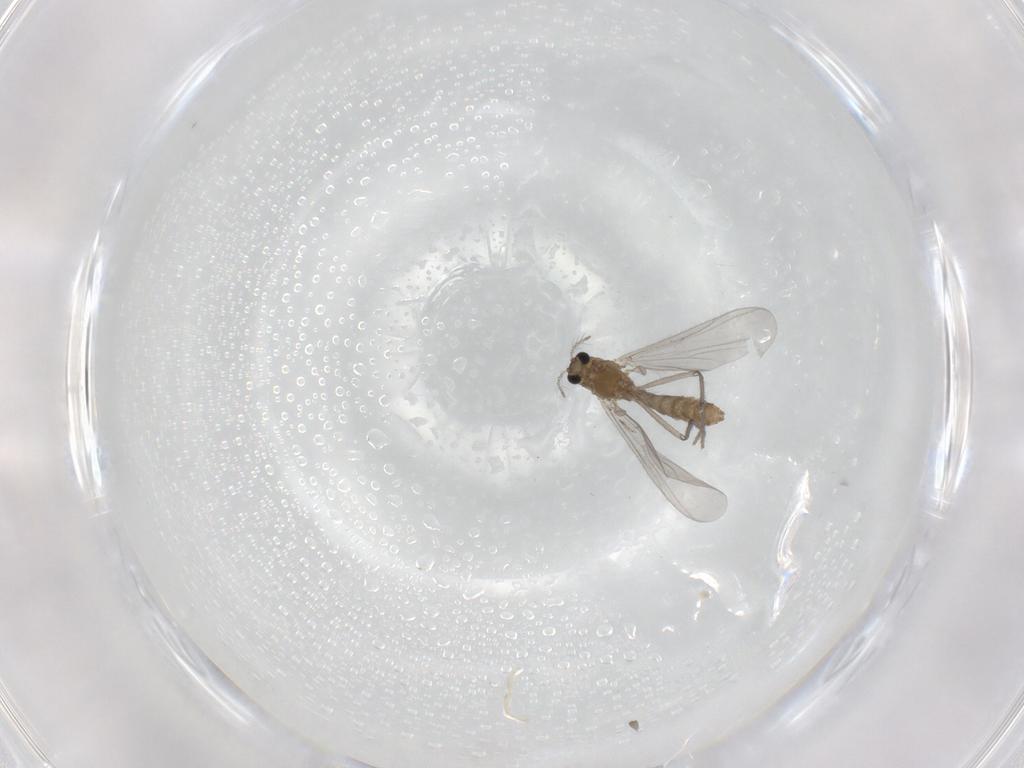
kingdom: Animalia
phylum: Arthropoda
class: Insecta
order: Diptera
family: Chironomidae
